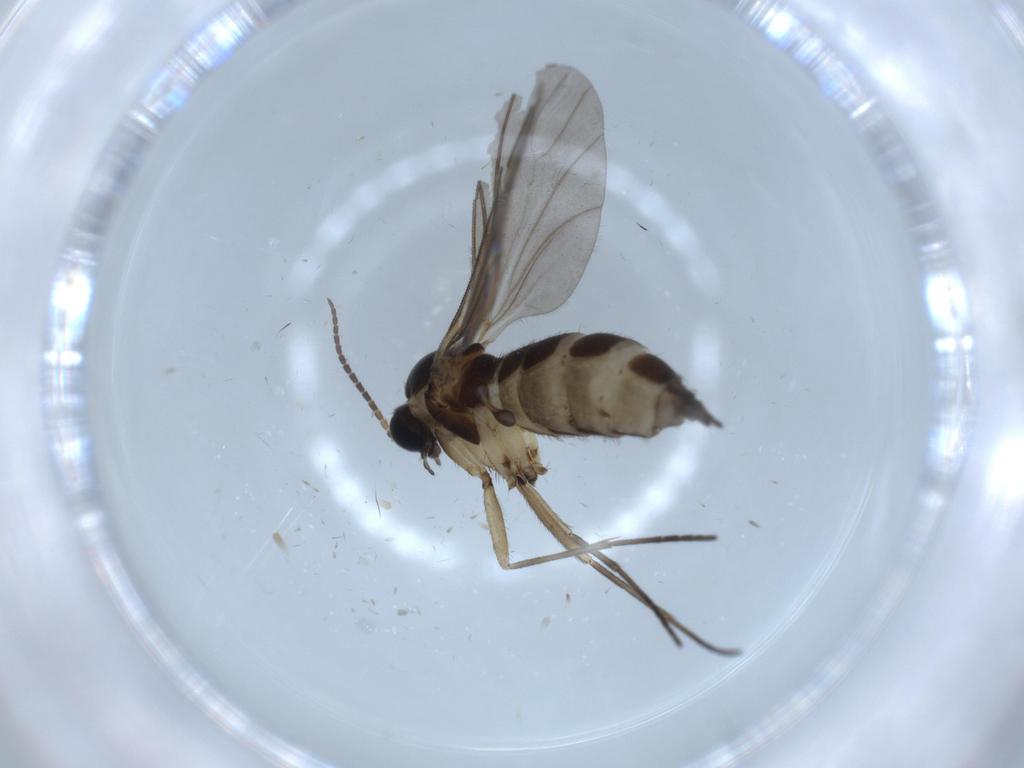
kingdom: Animalia
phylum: Arthropoda
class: Insecta
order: Diptera
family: Sciaridae
